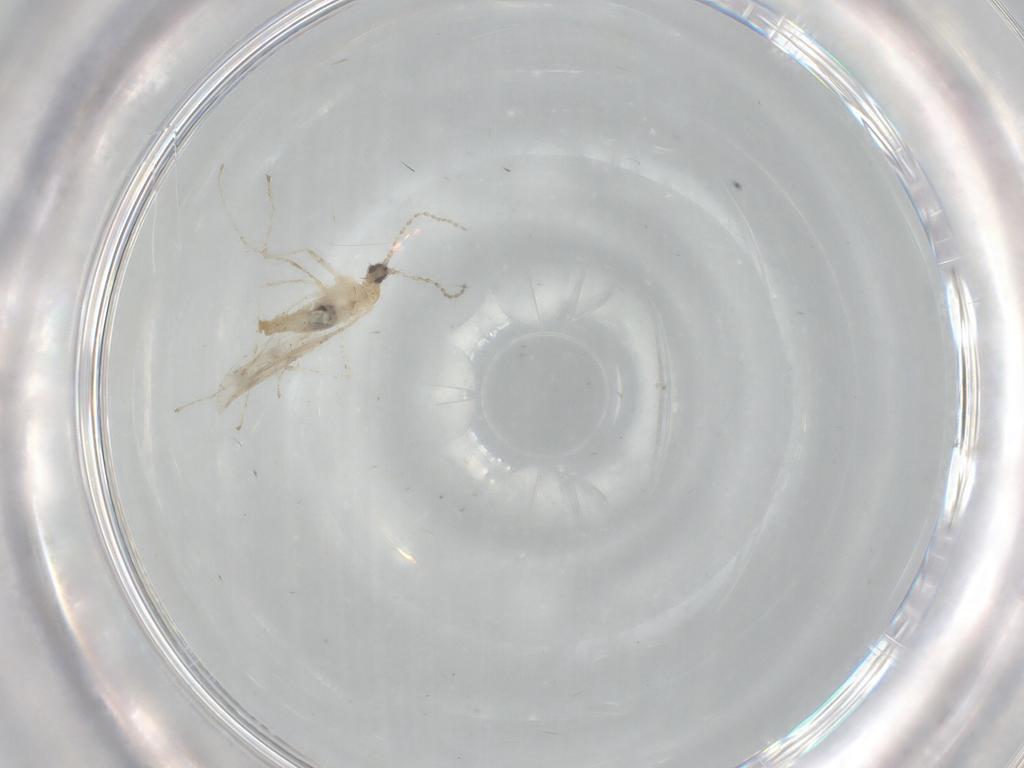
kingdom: Animalia
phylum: Arthropoda
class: Insecta
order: Diptera
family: Cecidomyiidae
